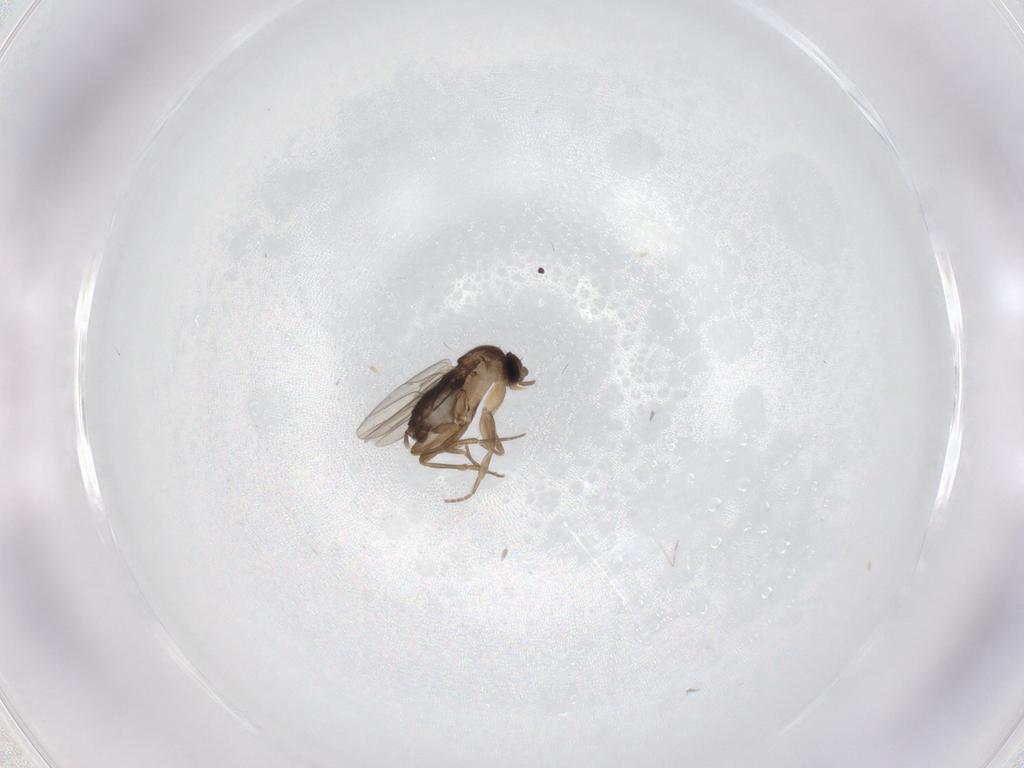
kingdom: Animalia
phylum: Arthropoda
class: Insecta
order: Diptera
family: Phoridae
